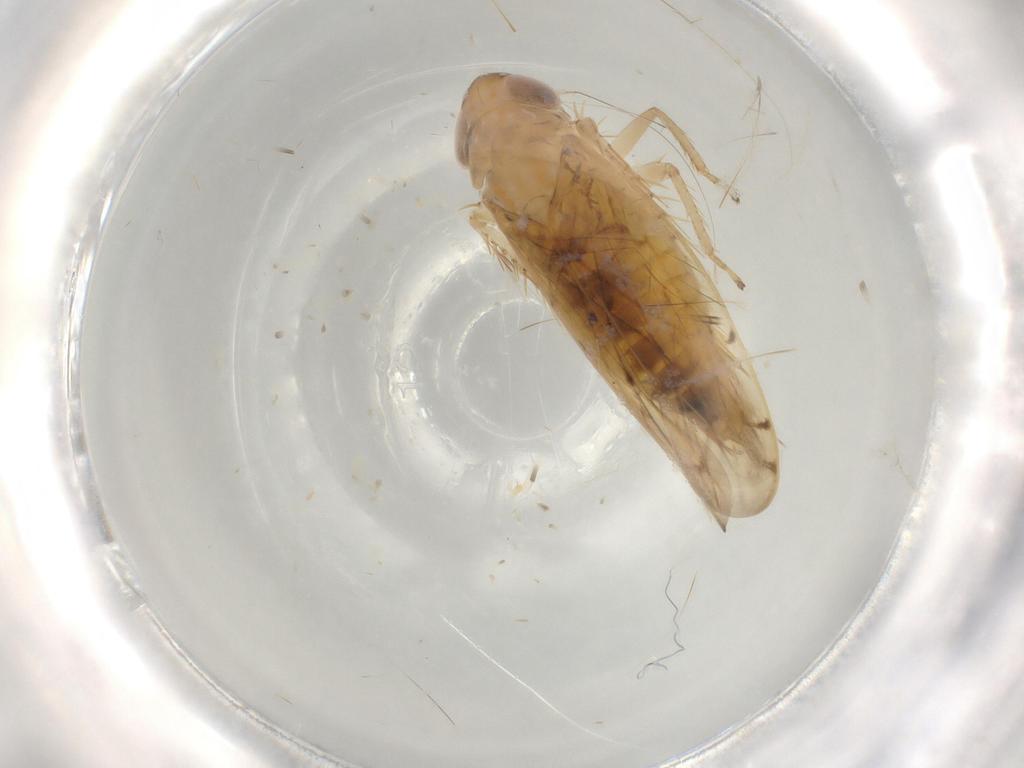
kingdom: Animalia
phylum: Arthropoda
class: Insecta
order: Hemiptera
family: Cicadellidae
